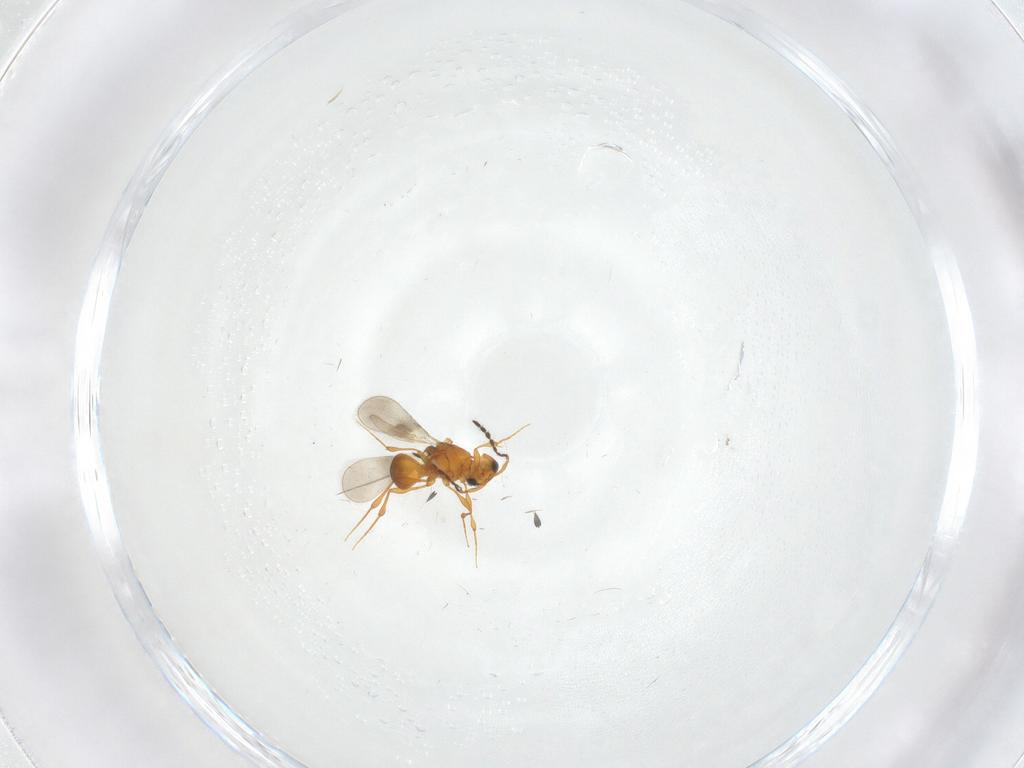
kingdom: Animalia
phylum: Arthropoda
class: Insecta
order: Hymenoptera
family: Platygastridae
